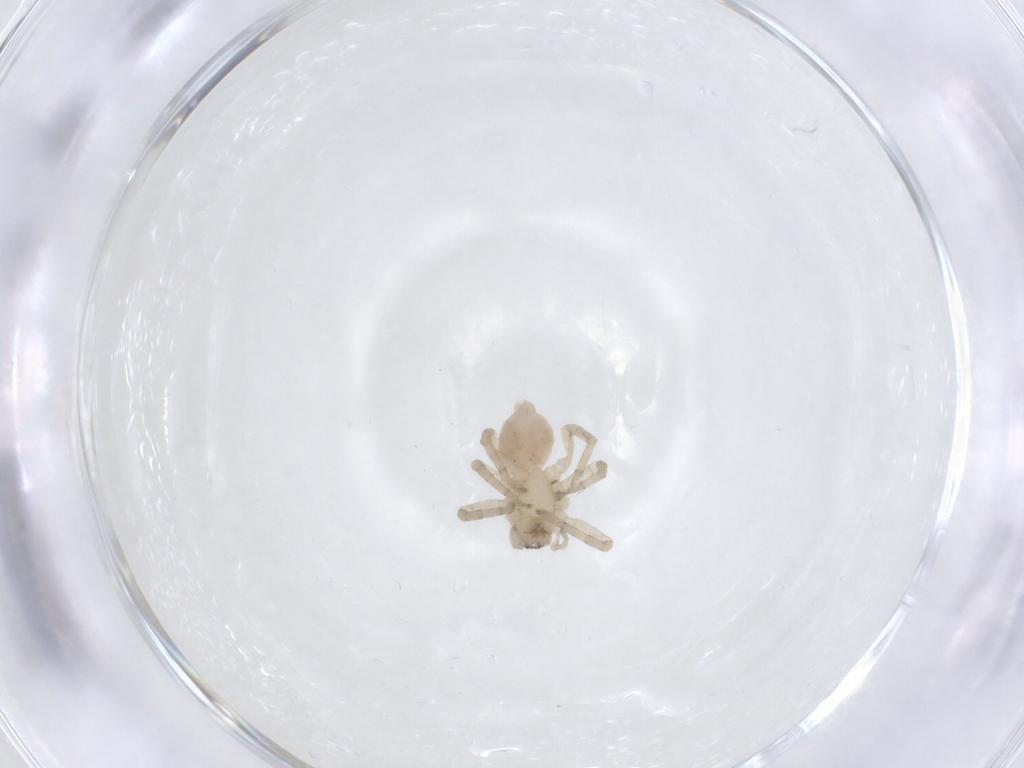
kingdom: Animalia
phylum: Arthropoda
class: Arachnida
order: Araneae
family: Anyphaenidae
